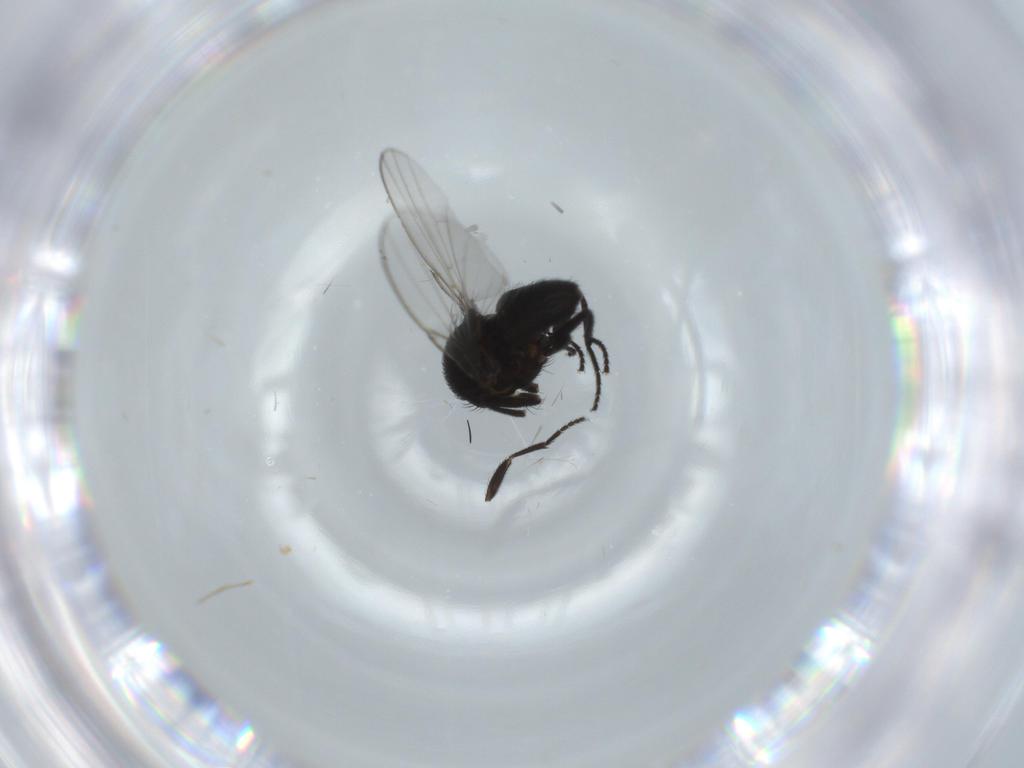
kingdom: Animalia
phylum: Arthropoda
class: Insecta
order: Diptera
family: Milichiidae
